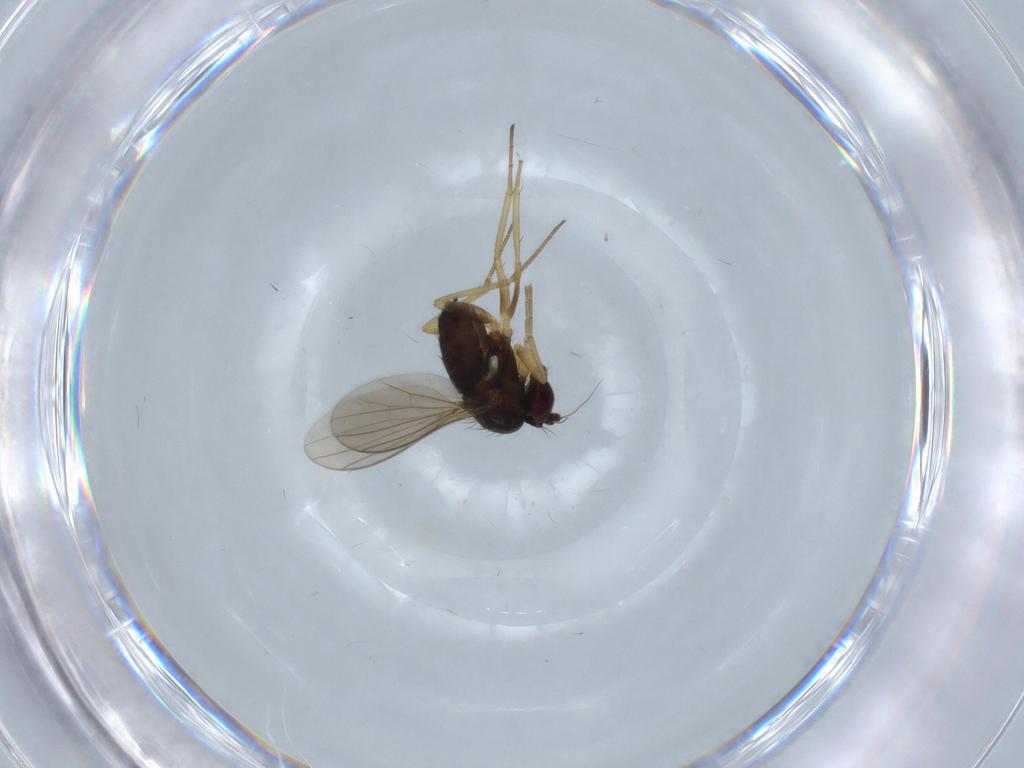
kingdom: Animalia
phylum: Arthropoda
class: Insecta
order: Diptera
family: Dolichopodidae
